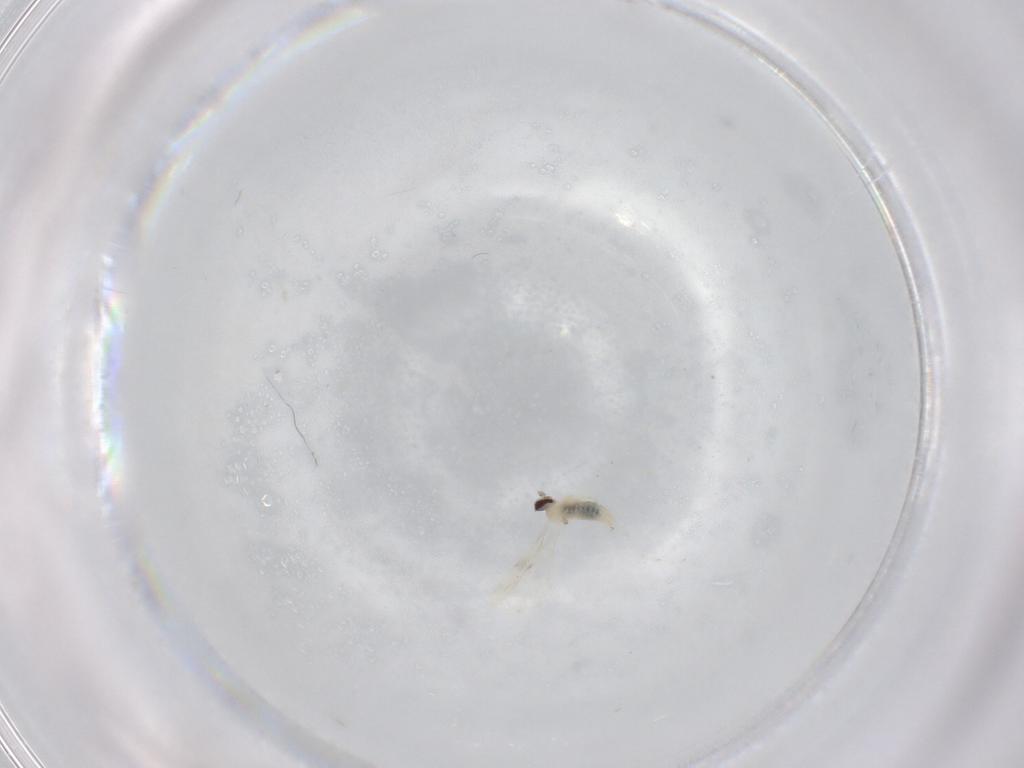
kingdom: Animalia
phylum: Arthropoda
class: Insecta
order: Diptera
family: Cecidomyiidae
